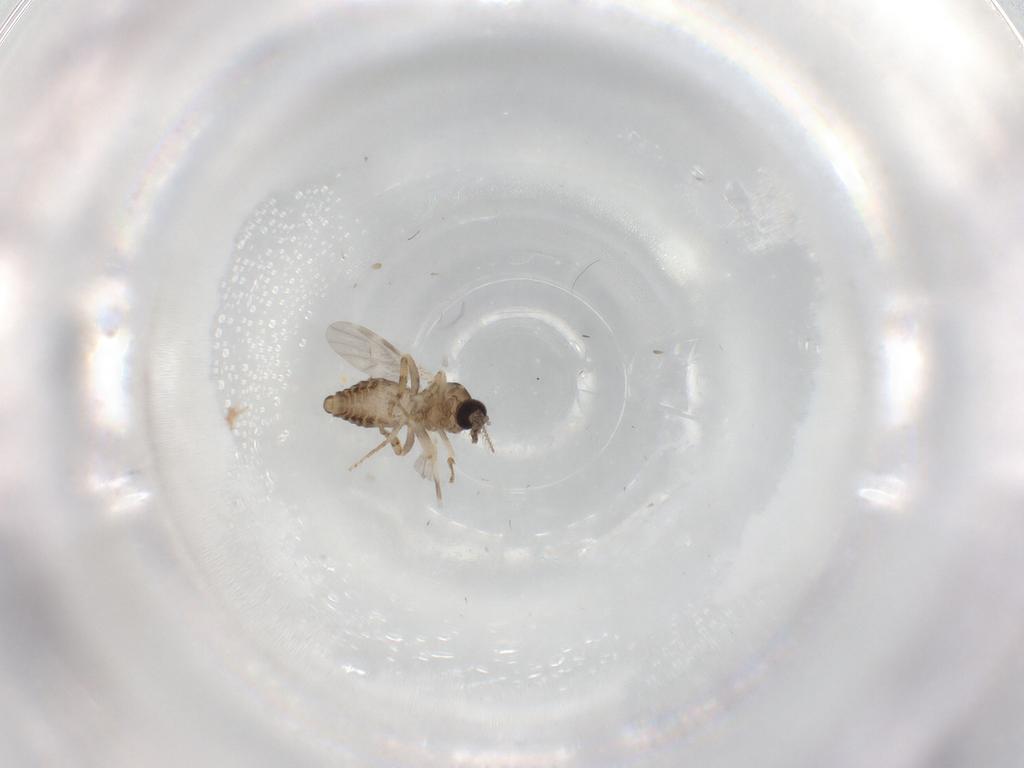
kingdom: Animalia
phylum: Arthropoda
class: Insecta
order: Diptera
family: Ceratopogonidae
